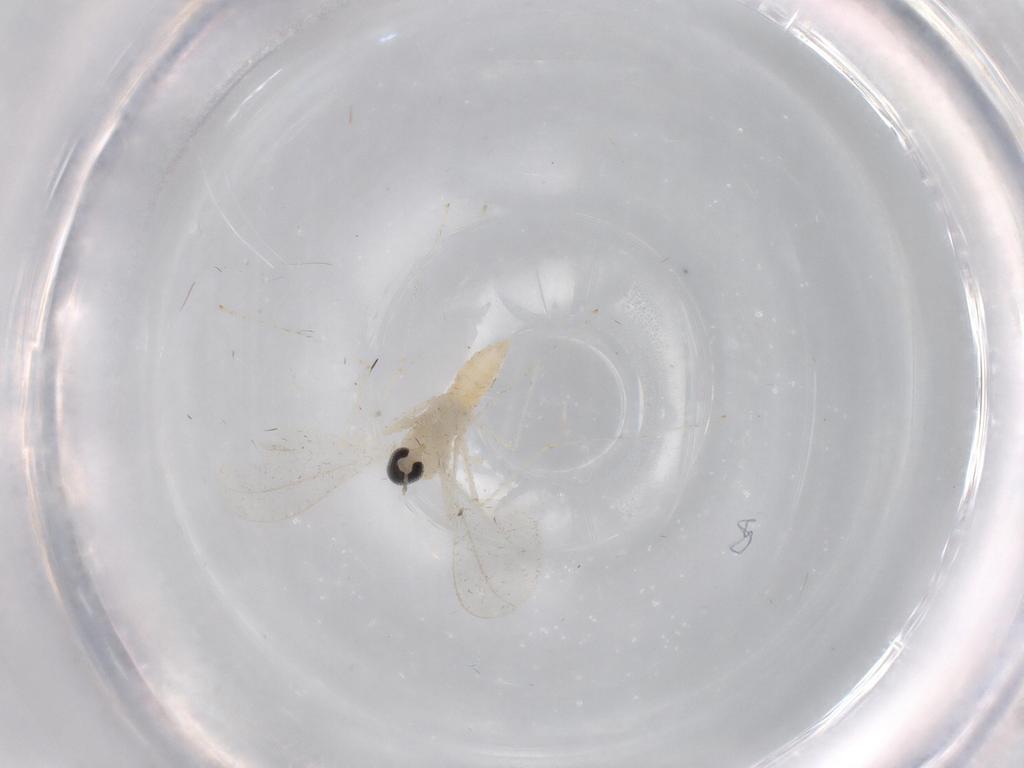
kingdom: Animalia
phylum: Arthropoda
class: Insecta
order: Diptera
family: Cecidomyiidae
